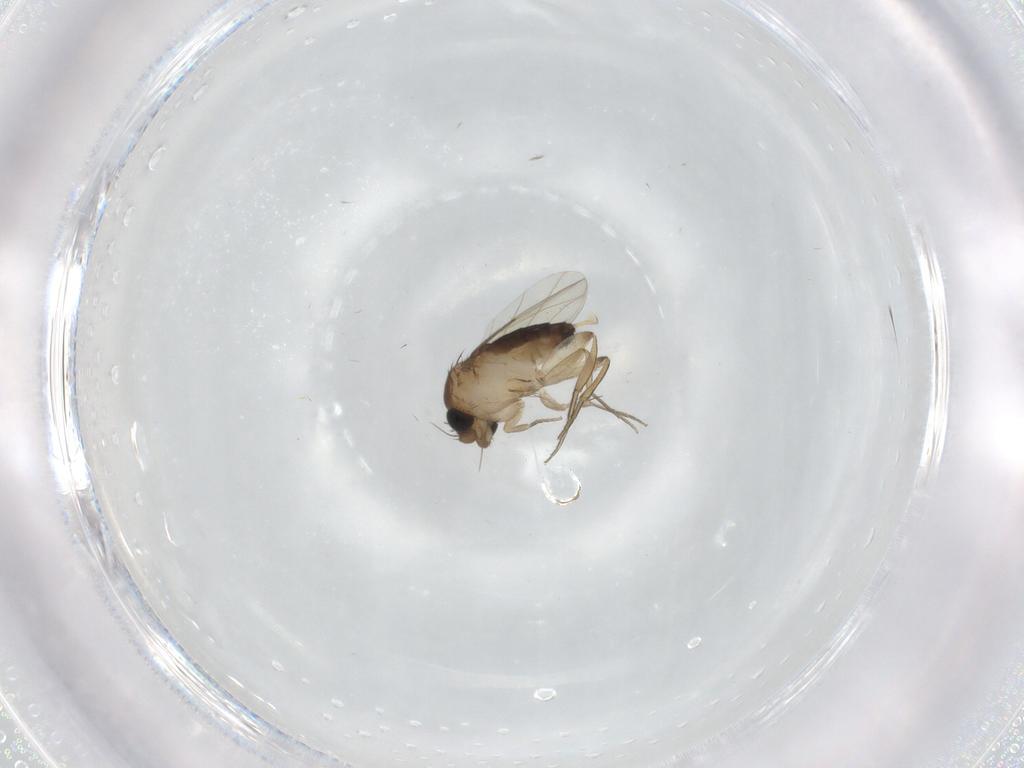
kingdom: Animalia
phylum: Arthropoda
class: Insecta
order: Diptera
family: Phoridae
